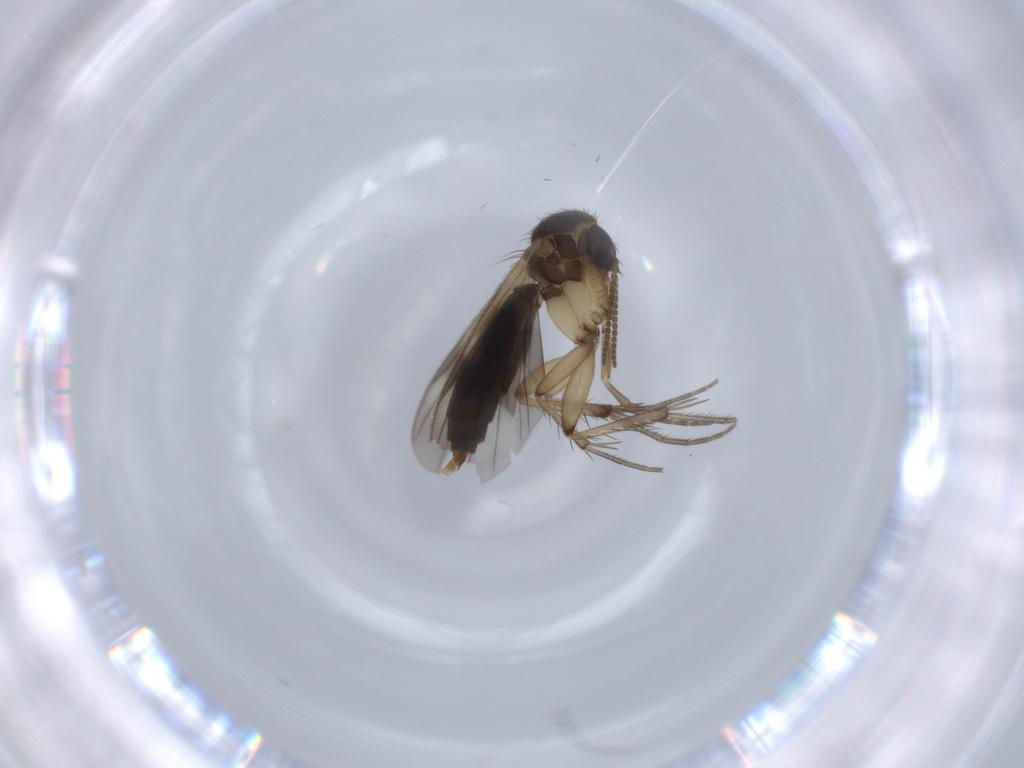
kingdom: Animalia
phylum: Arthropoda
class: Insecta
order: Diptera
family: Mycetophilidae
